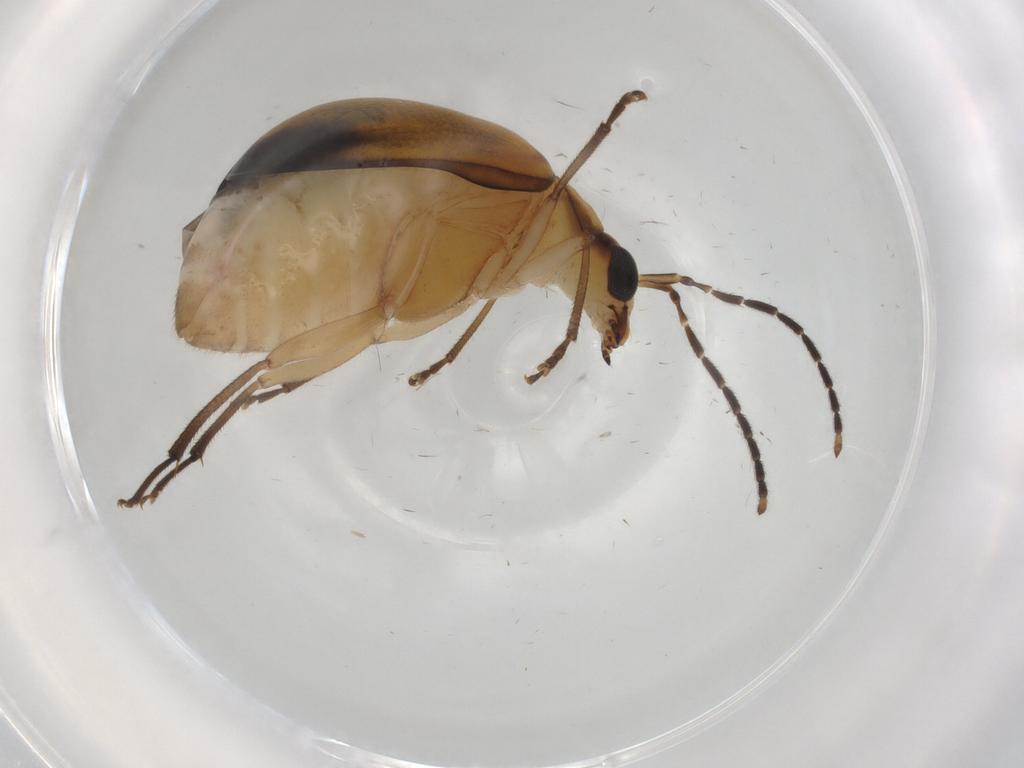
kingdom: Animalia
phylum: Arthropoda
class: Insecta
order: Coleoptera
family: Chrysomelidae
